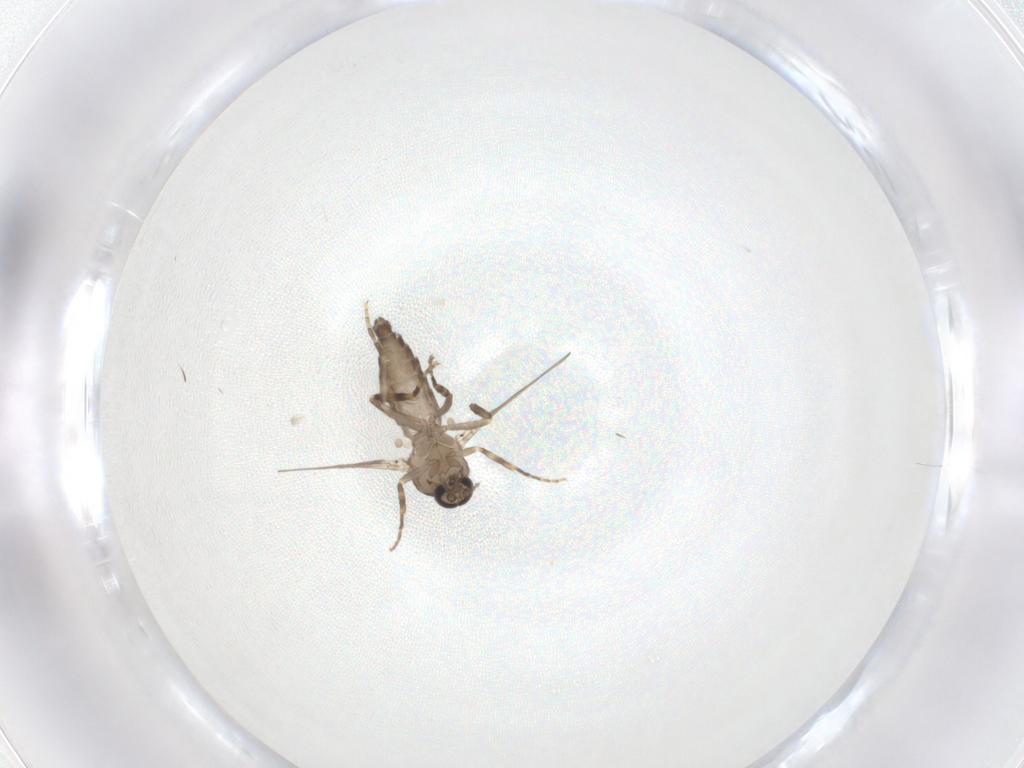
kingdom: Animalia
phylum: Arthropoda
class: Insecta
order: Diptera
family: Ceratopogonidae
